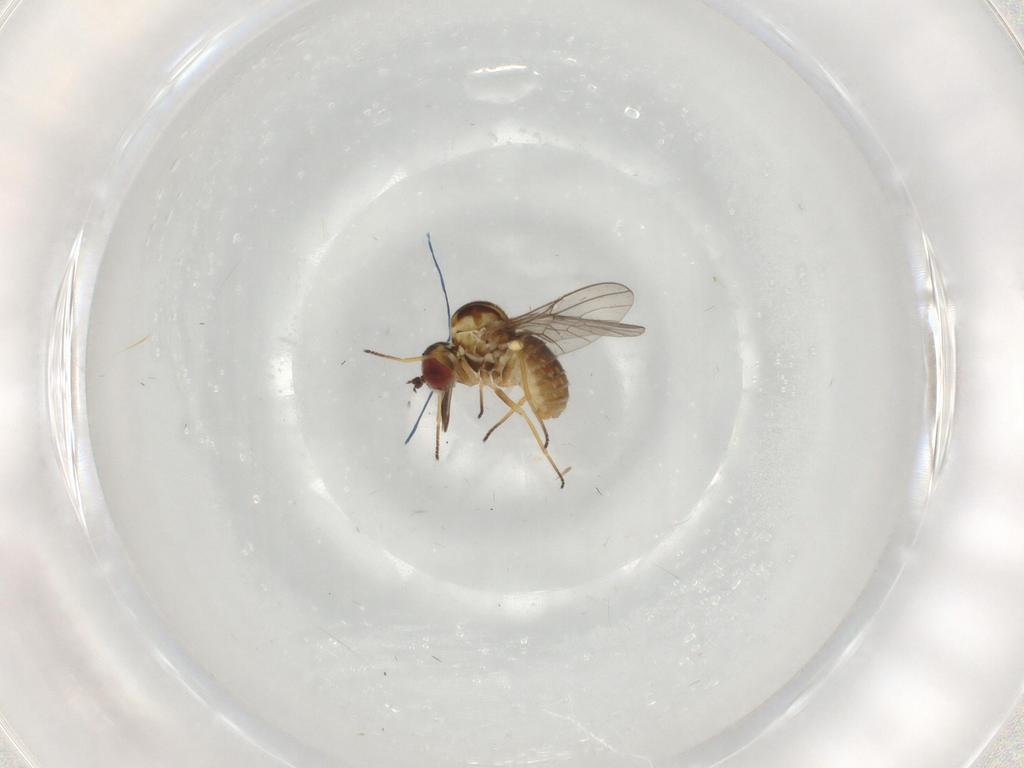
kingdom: Animalia
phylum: Arthropoda
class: Insecta
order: Diptera
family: Mythicomyiidae
